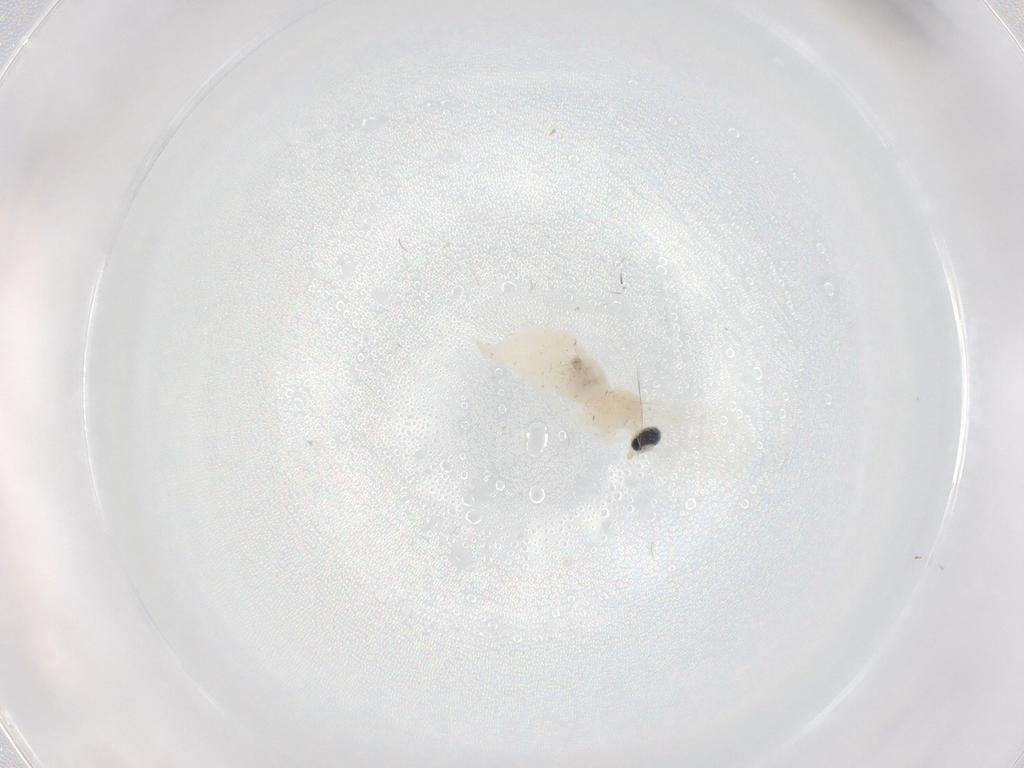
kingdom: Animalia
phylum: Arthropoda
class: Insecta
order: Diptera
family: Cecidomyiidae
